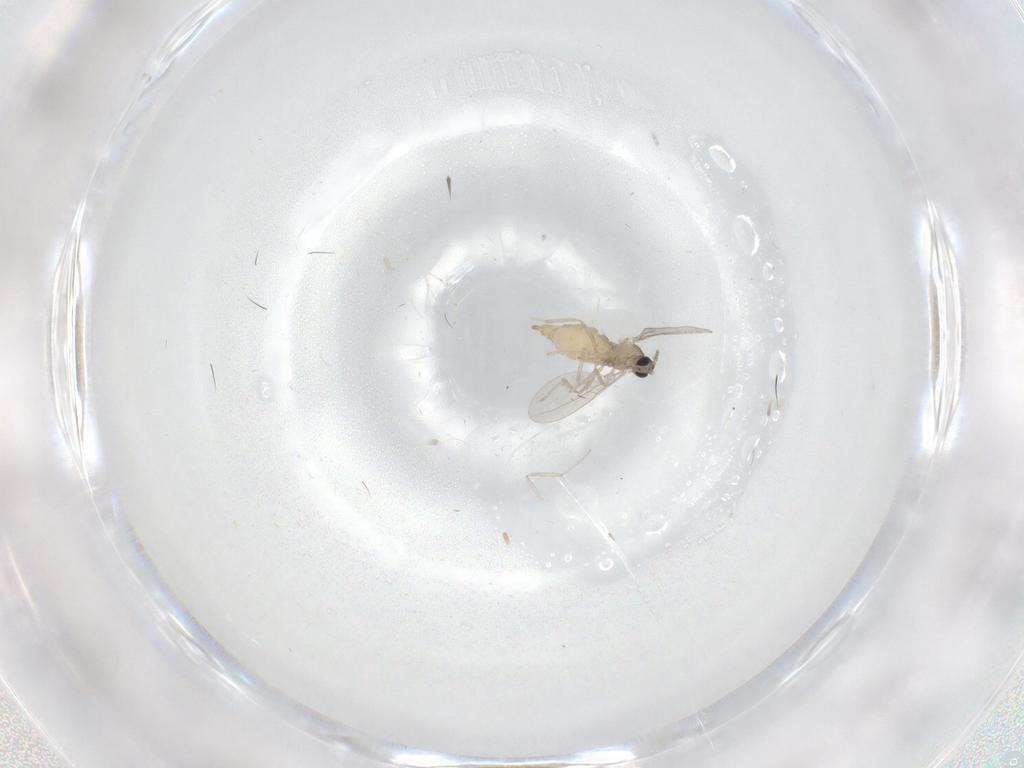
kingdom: Animalia
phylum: Arthropoda
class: Insecta
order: Diptera
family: Cecidomyiidae
